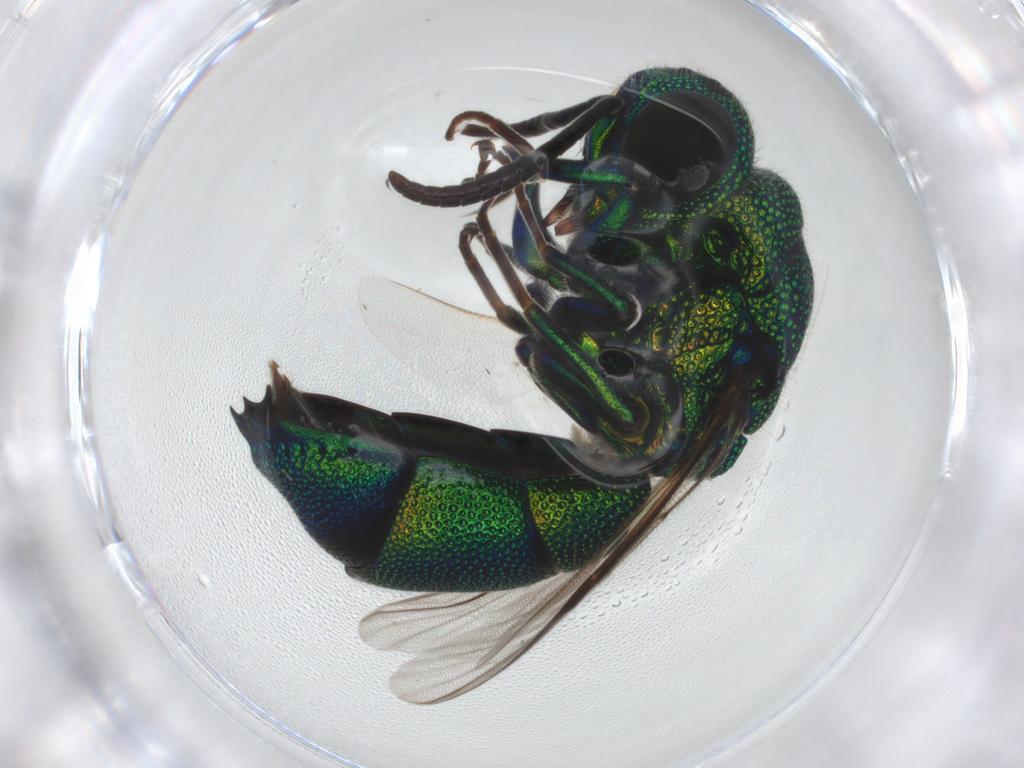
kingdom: Animalia
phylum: Arthropoda
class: Insecta
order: Hymenoptera
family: Chrysididae
